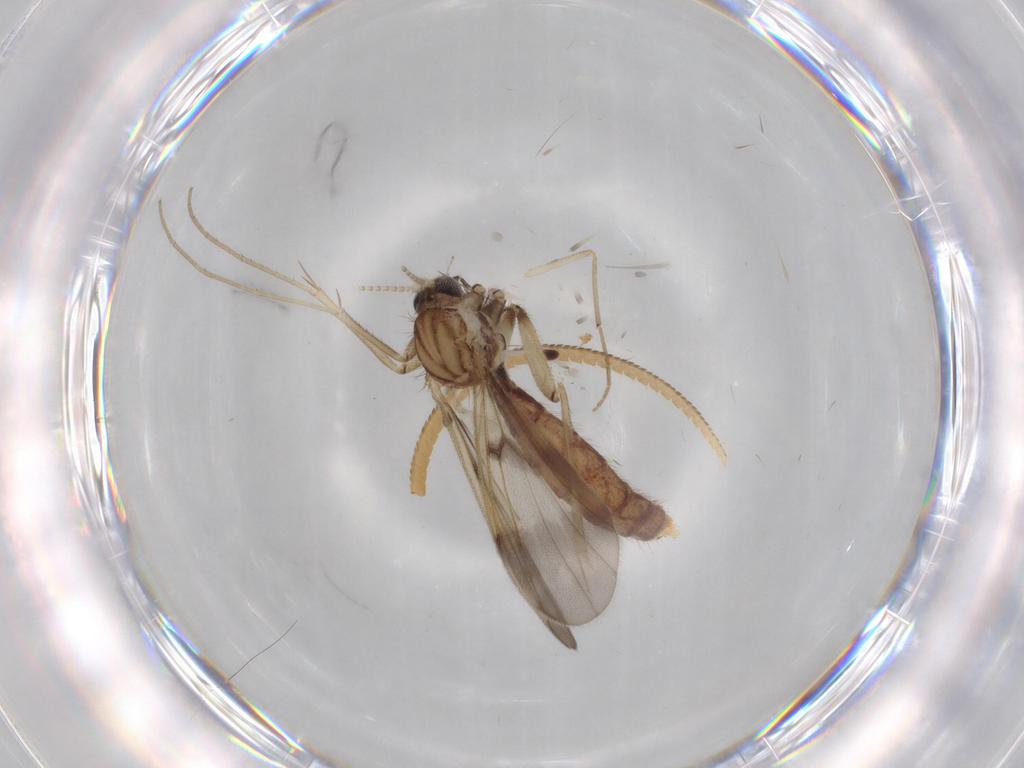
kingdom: Animalia
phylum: Arthropoda
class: Insecta
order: Diptera
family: Mycetophilidae
